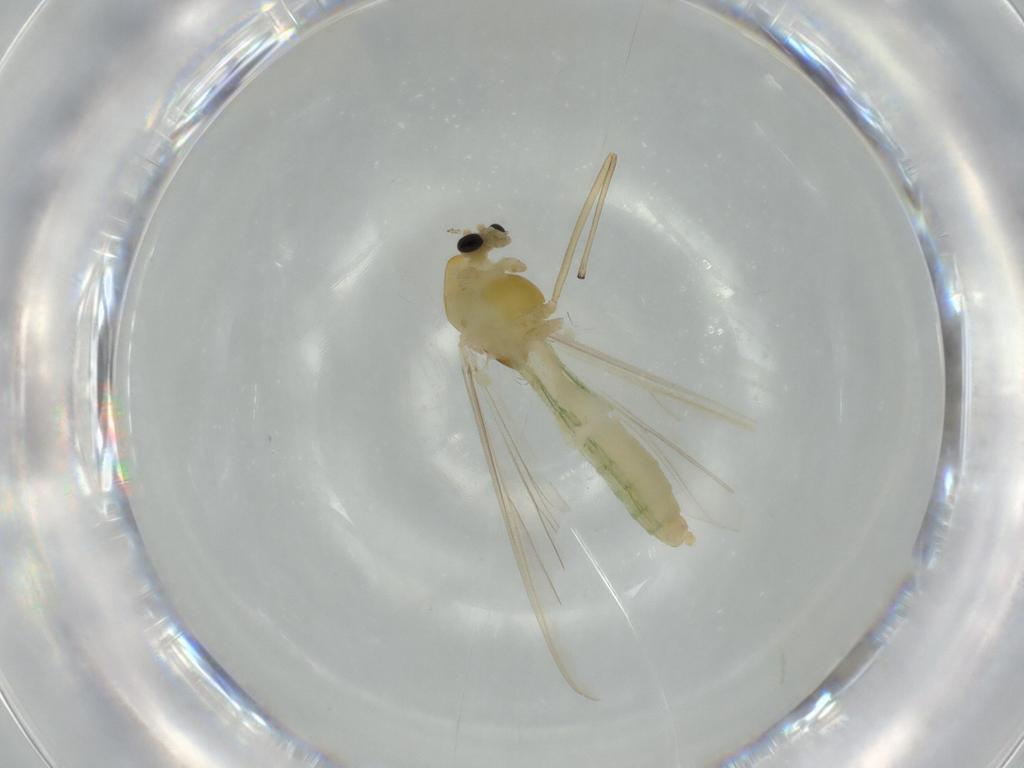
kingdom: Animalia
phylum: Arthropoda
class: Insecta
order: Diptera
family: Chironomidae
